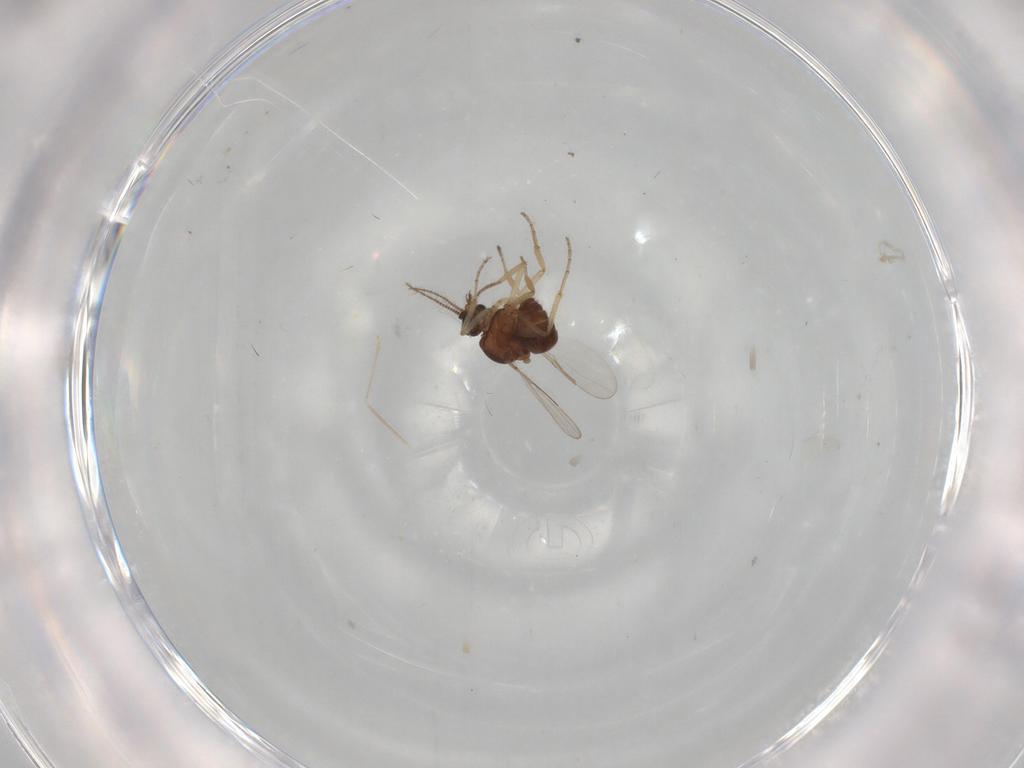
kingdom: Animalia
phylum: Arthropoda
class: Insecta
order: Diptera
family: Ceratopogonidae
